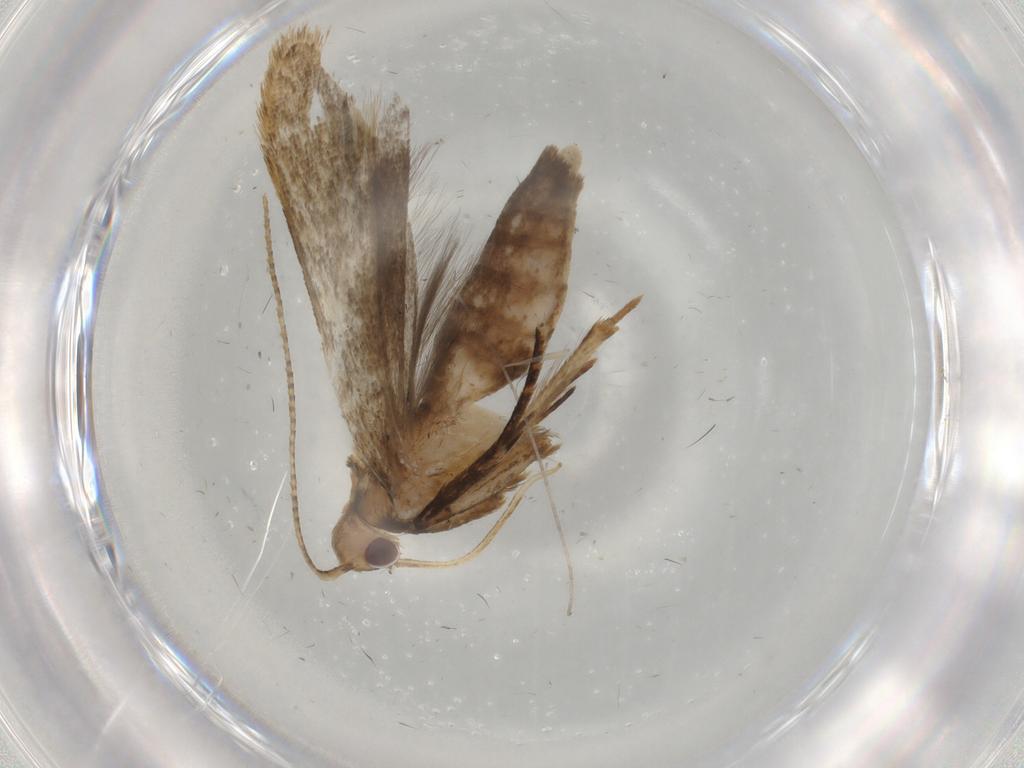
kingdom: Animalia
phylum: Arthropoda
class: Insecta
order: Lepidoptera
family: Gelechiidae
